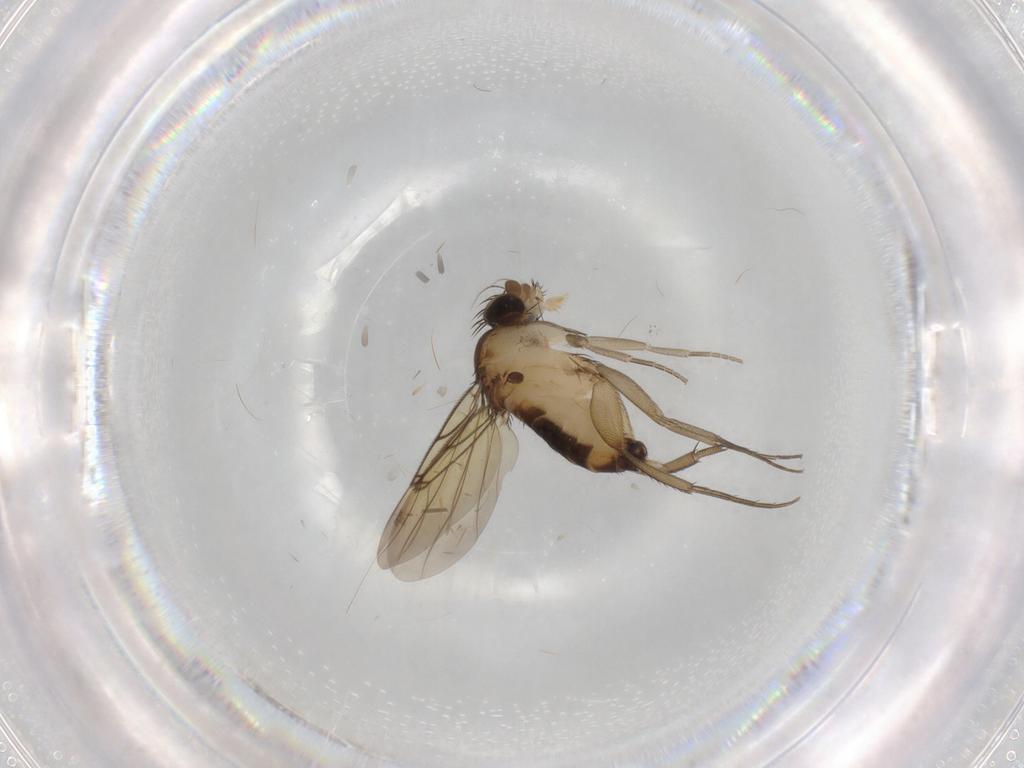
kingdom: Animalia
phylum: Arthropoda
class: Insecta
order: Diptera
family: Phoridae
